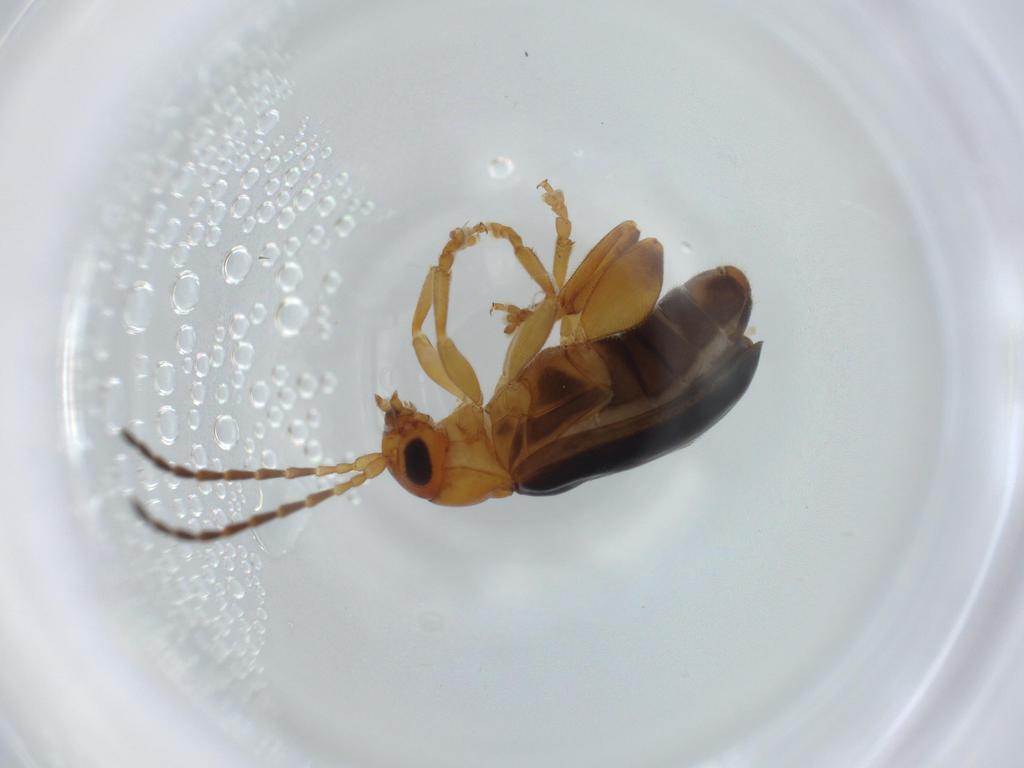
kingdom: Animalia
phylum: Arthropoda
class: Insecta
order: Coleoptera
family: Chrysomelidae
